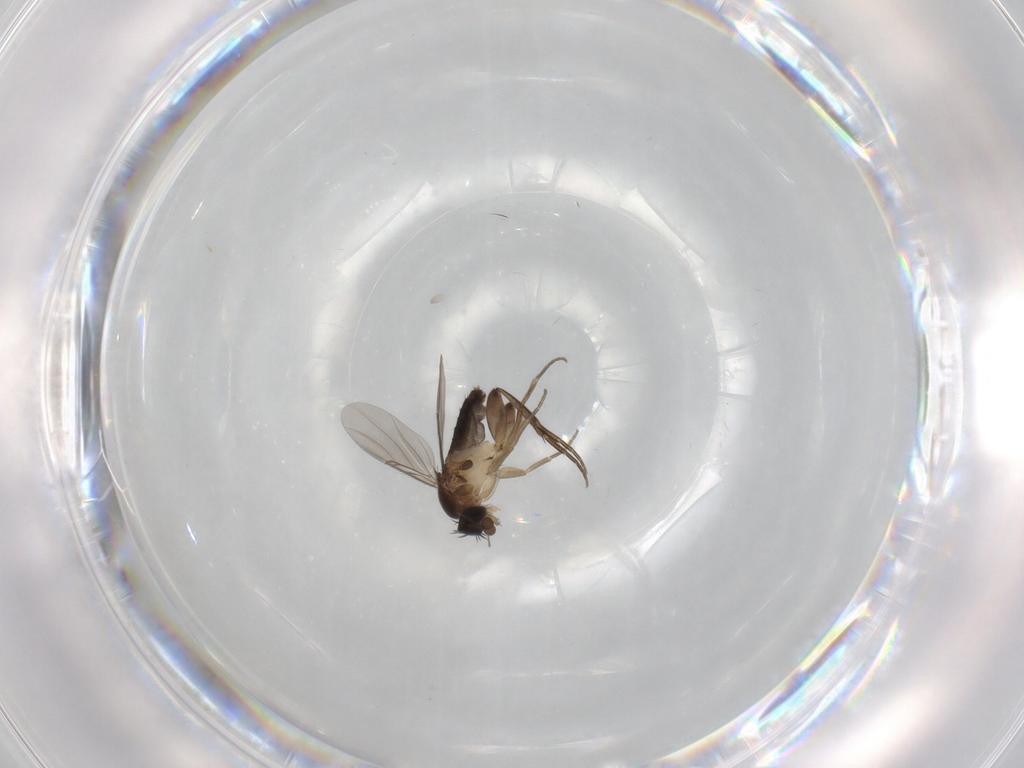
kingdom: Animalia
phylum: Arthropoda
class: Insecta
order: Diptera
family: Phoridae
